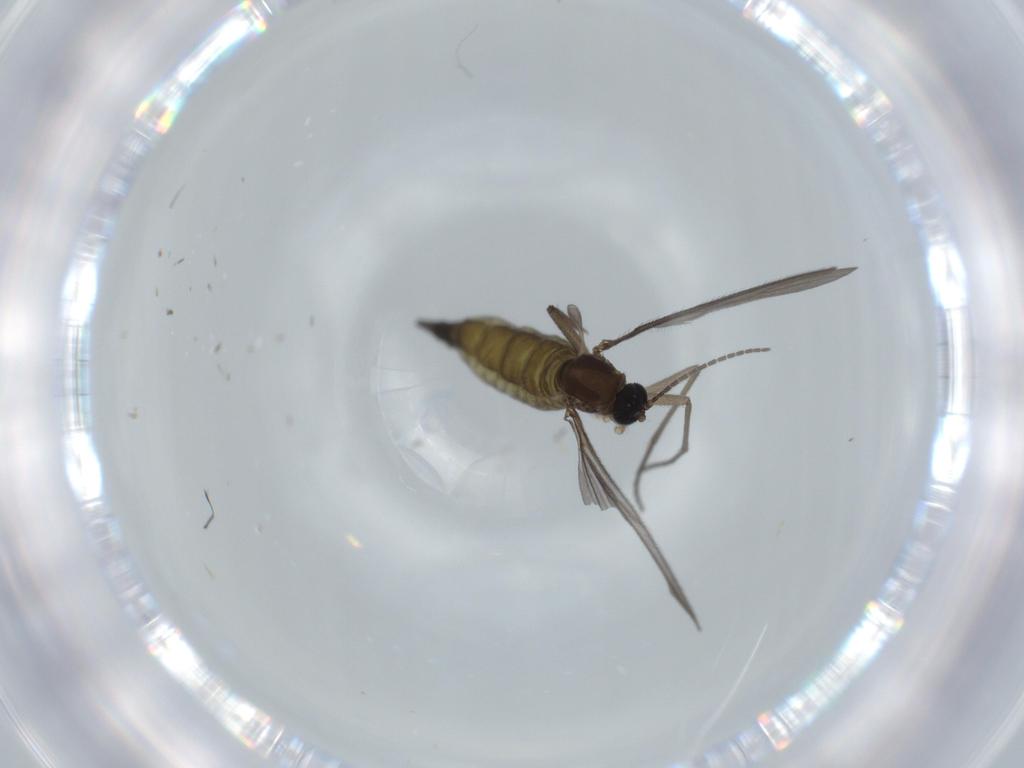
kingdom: Animalia
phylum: Arthropoda
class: Insecta
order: Diptera
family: Sciaridae
